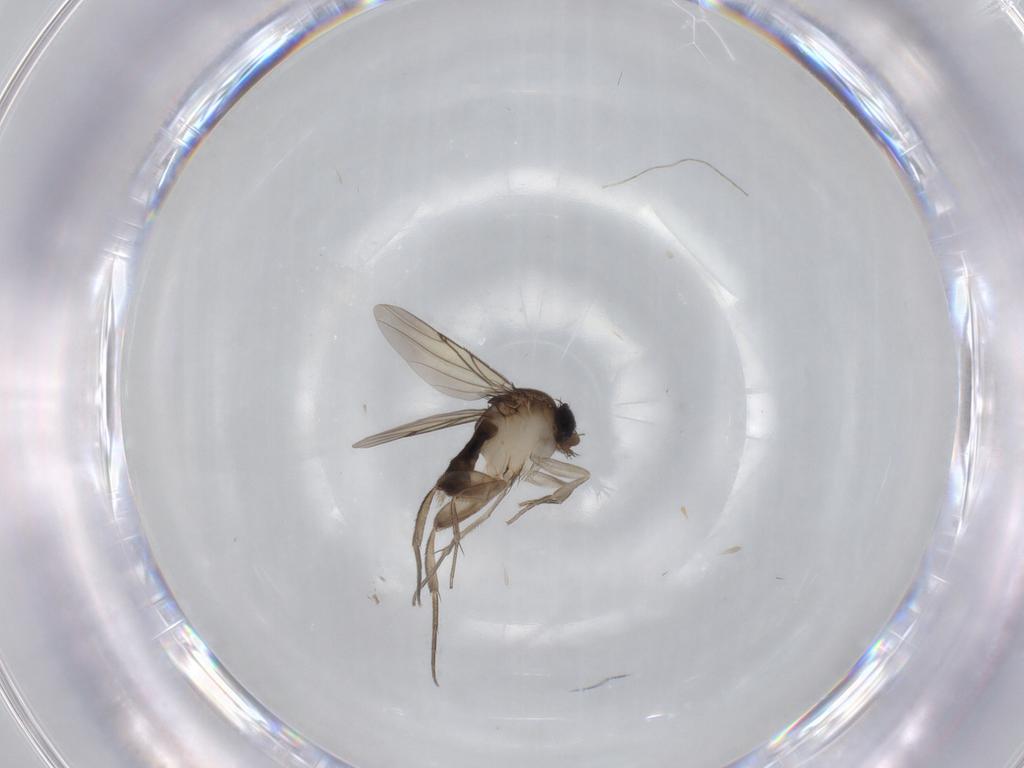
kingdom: Animalia
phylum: Arthropoda
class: Insecta
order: Diptera
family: Cecidomyiidae
